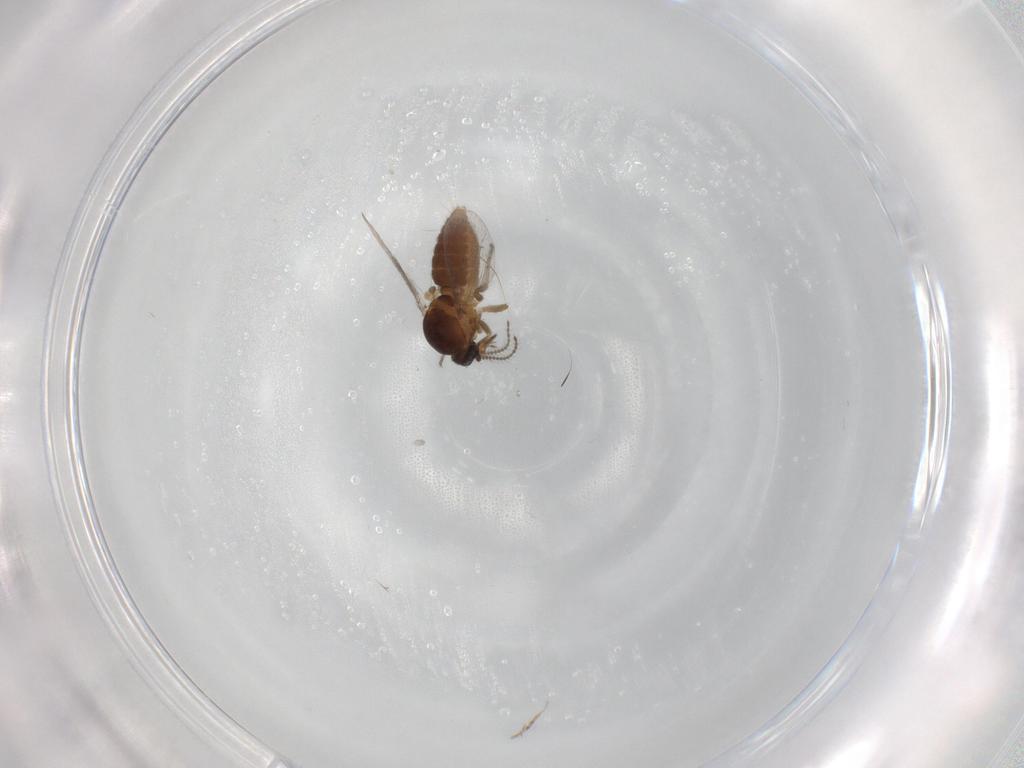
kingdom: Animalia
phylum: Arthropoda
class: Insecta
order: Diptera
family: Ceratopogonidae
